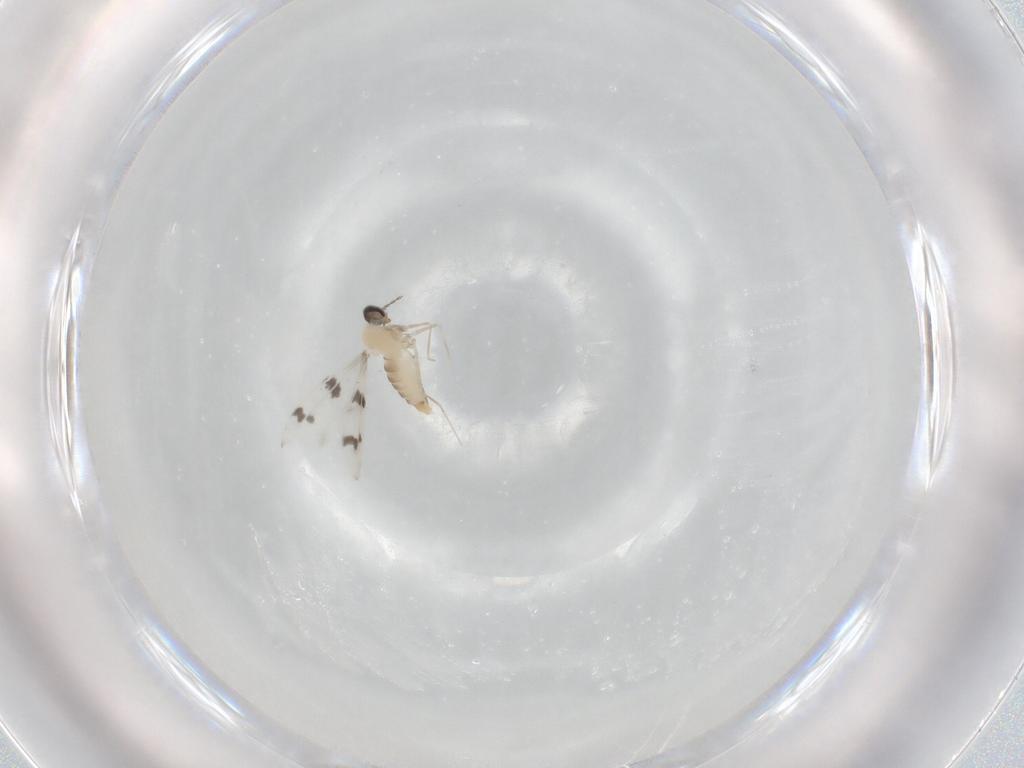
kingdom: Animalia
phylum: Arthropoda
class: Insecta
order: Diptera
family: Cecidomyiidae
